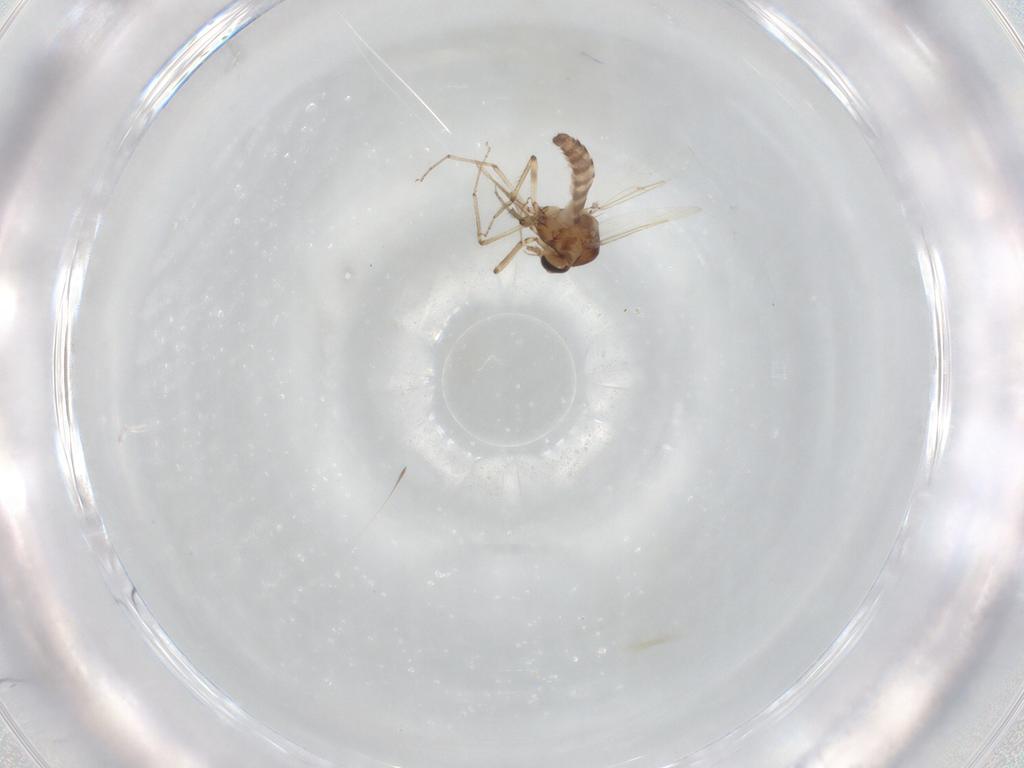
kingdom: Animalia
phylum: Arthropoda
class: Insecta
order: Diptera
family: Ceratopogonidae
